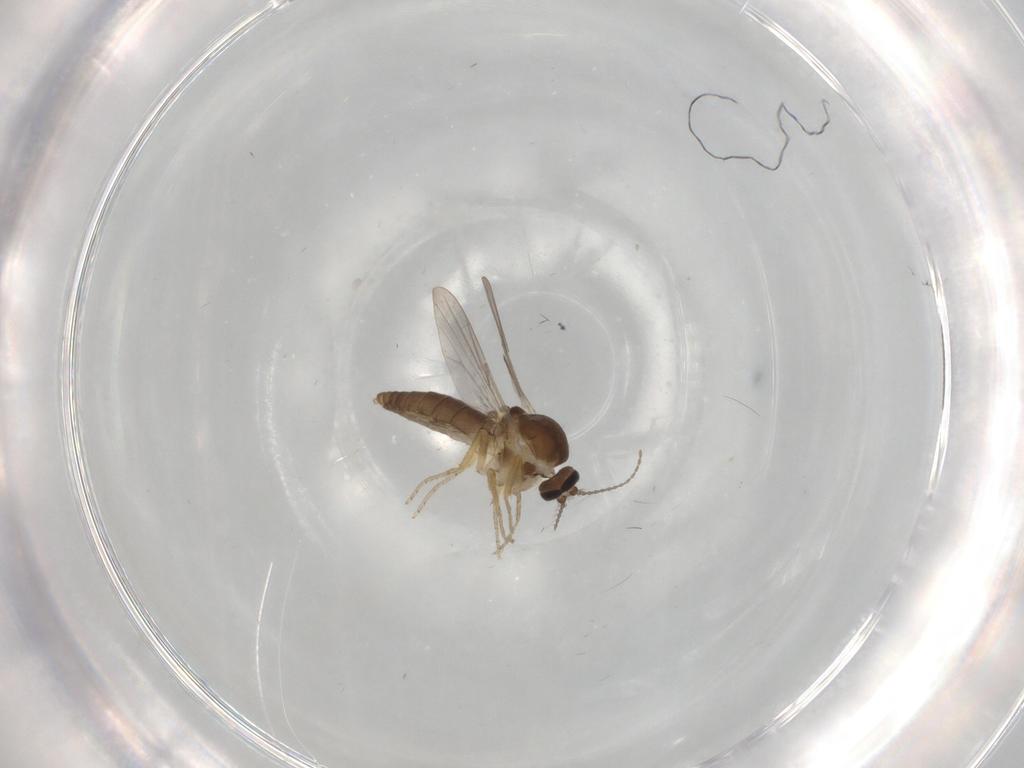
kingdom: Animalia
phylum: Arthropoda
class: Insecta
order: Diptera
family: Ceratopogonidae
